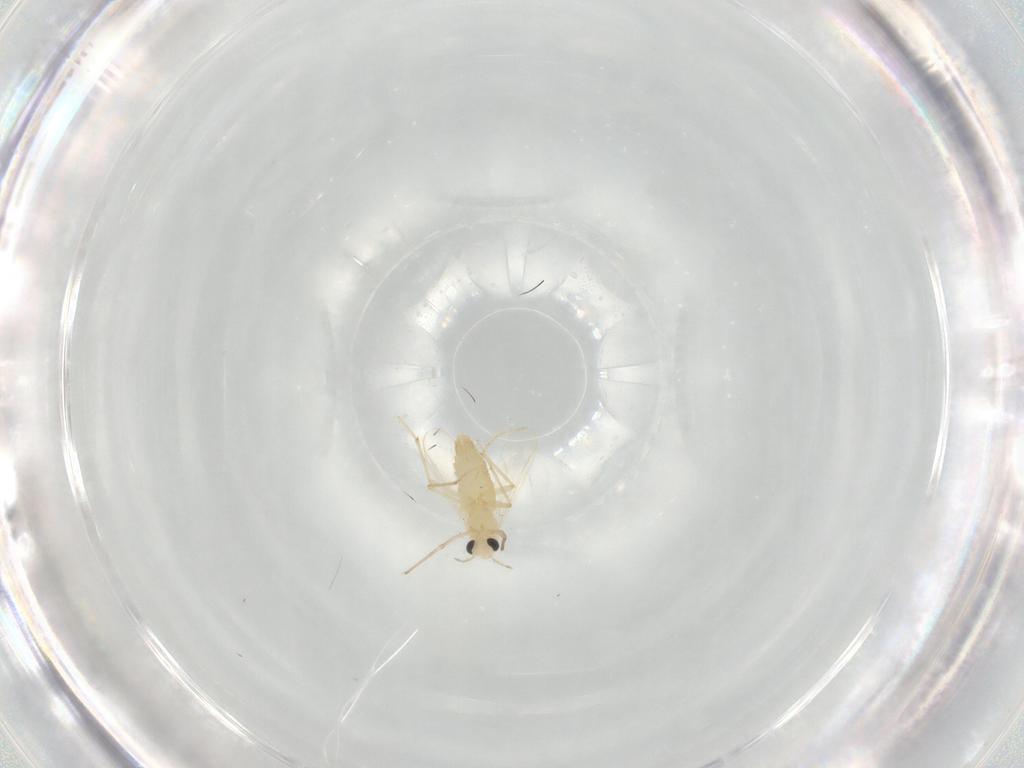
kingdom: Animalia
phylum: Arthropoda
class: Insecta
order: Diptera
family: Chironomidae
